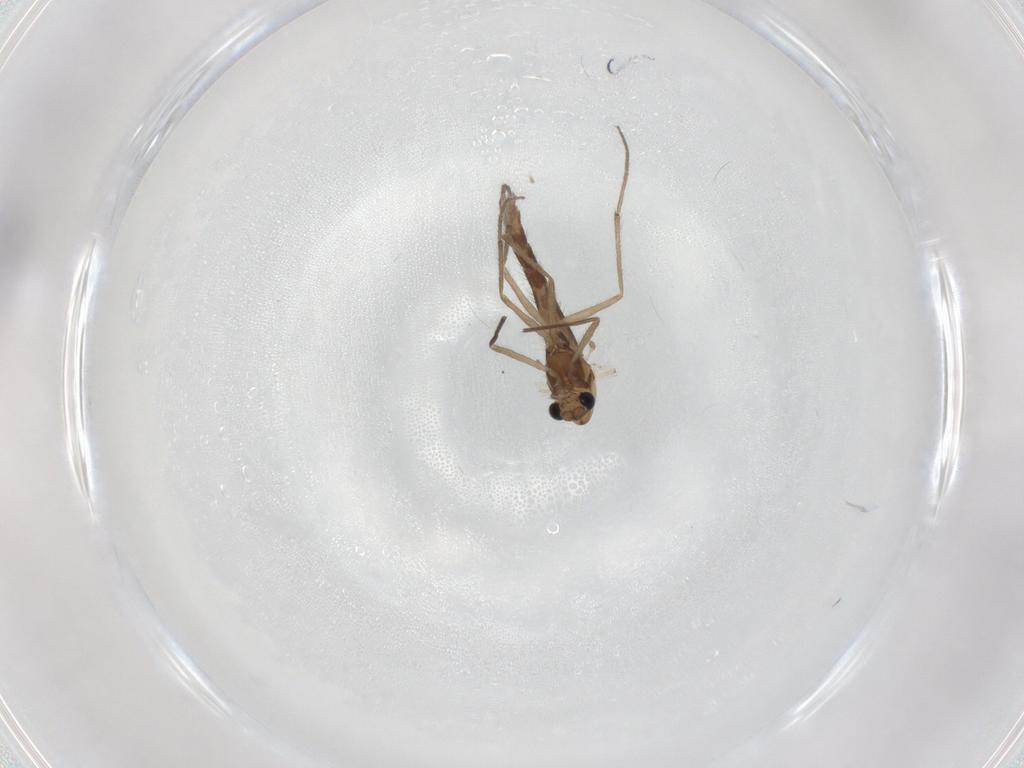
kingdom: Animalia
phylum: Arthropoda
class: Insecta
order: Diptera
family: Chironomidae
